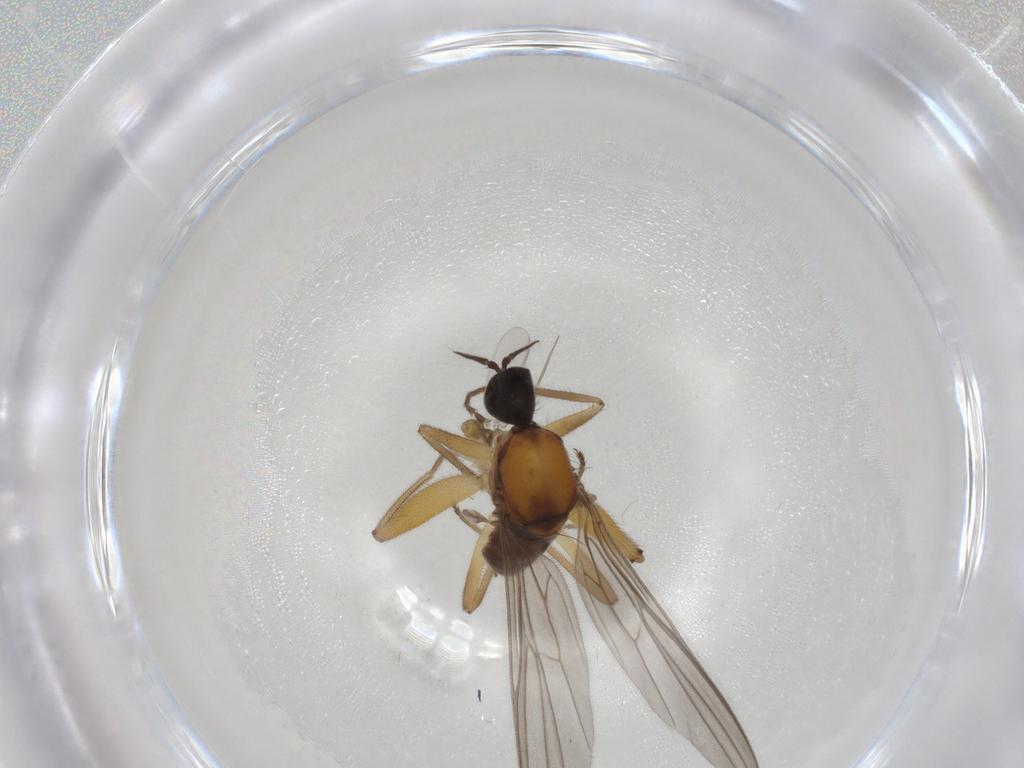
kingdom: Animalia
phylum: Arthropoda
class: Insecta
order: Diptera
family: Hybotidae
